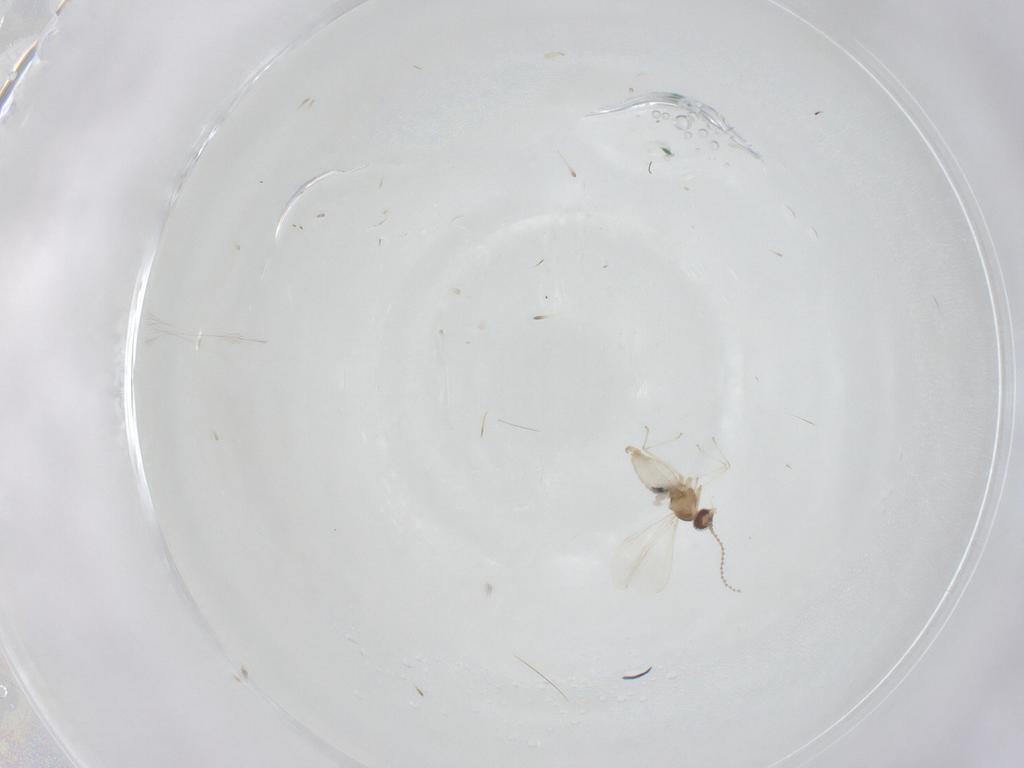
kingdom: Animalia
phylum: Arthropoda
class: Insecta
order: Diptera
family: Cecidomyiidae
